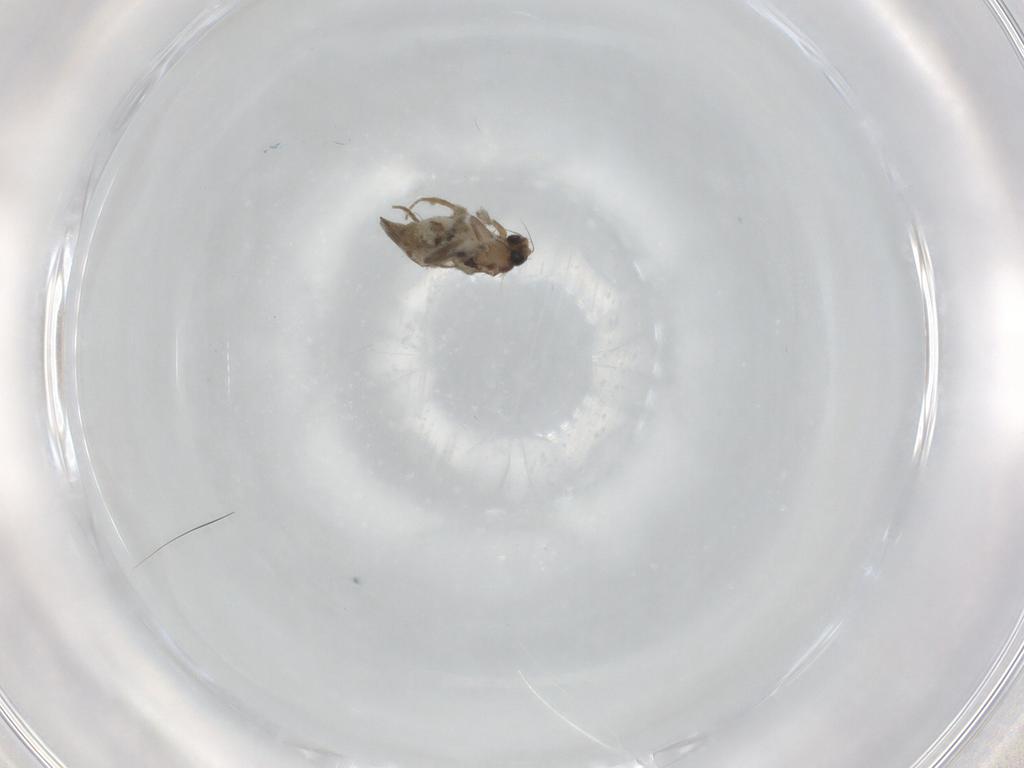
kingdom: Animalia
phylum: Arthropoda
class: Insecta
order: Diptera
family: Phoridae
